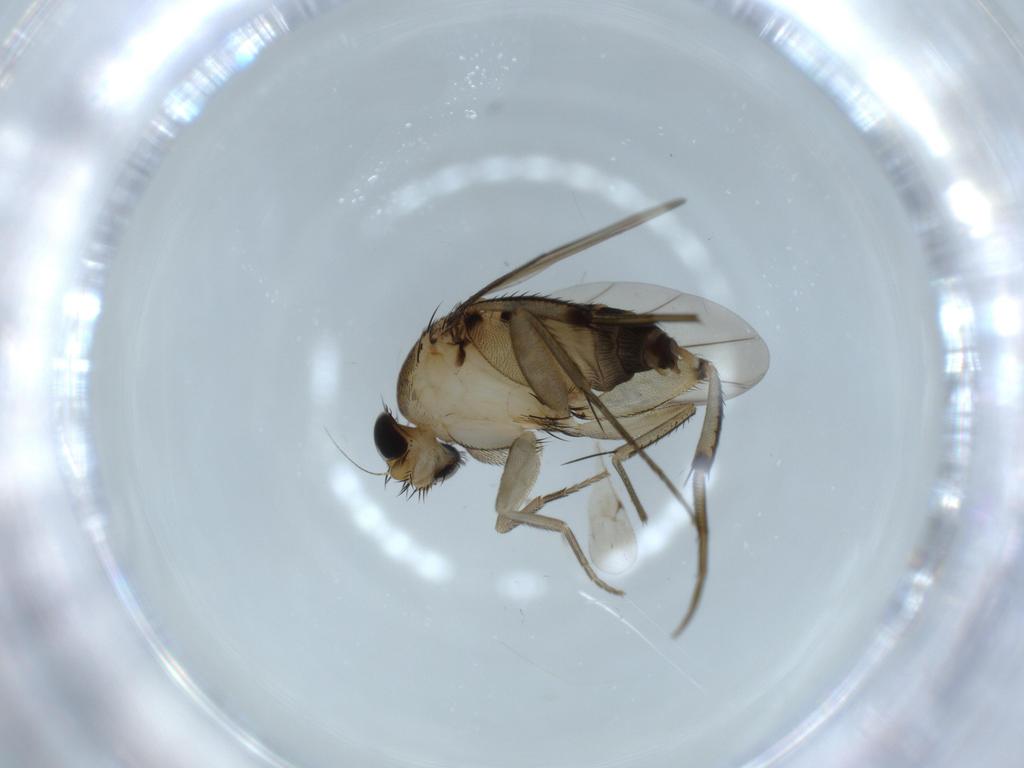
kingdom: Animalia
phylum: Arthropoda
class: Insecta
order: Diptera
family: Phoridae
